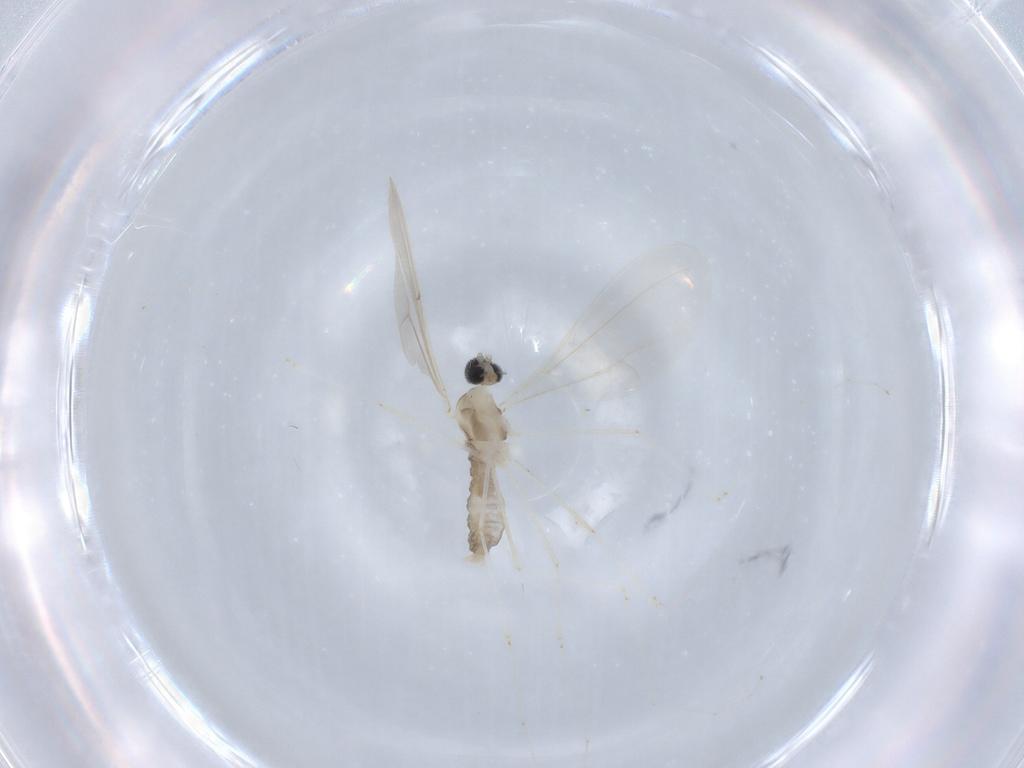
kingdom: Animalia
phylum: Arthropoda
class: Insecta
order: Diptera
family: Cecidomyiidae
